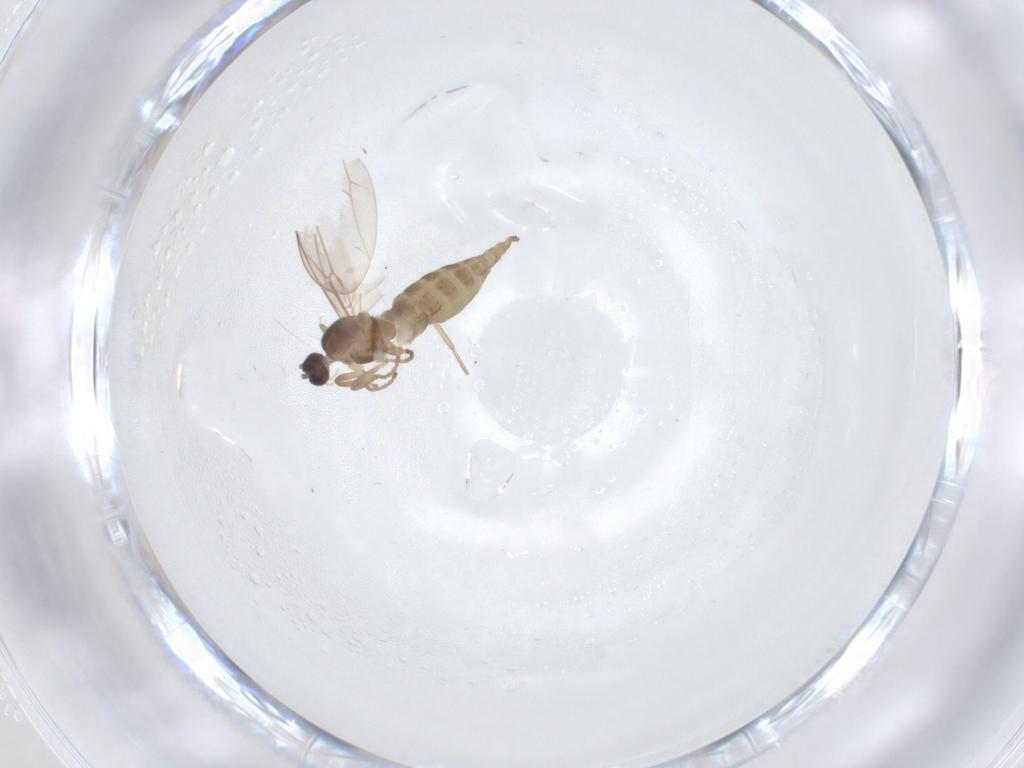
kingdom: Animalia
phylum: Arthropoda
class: Insecta
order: Diptera
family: Cecidomyiidae
